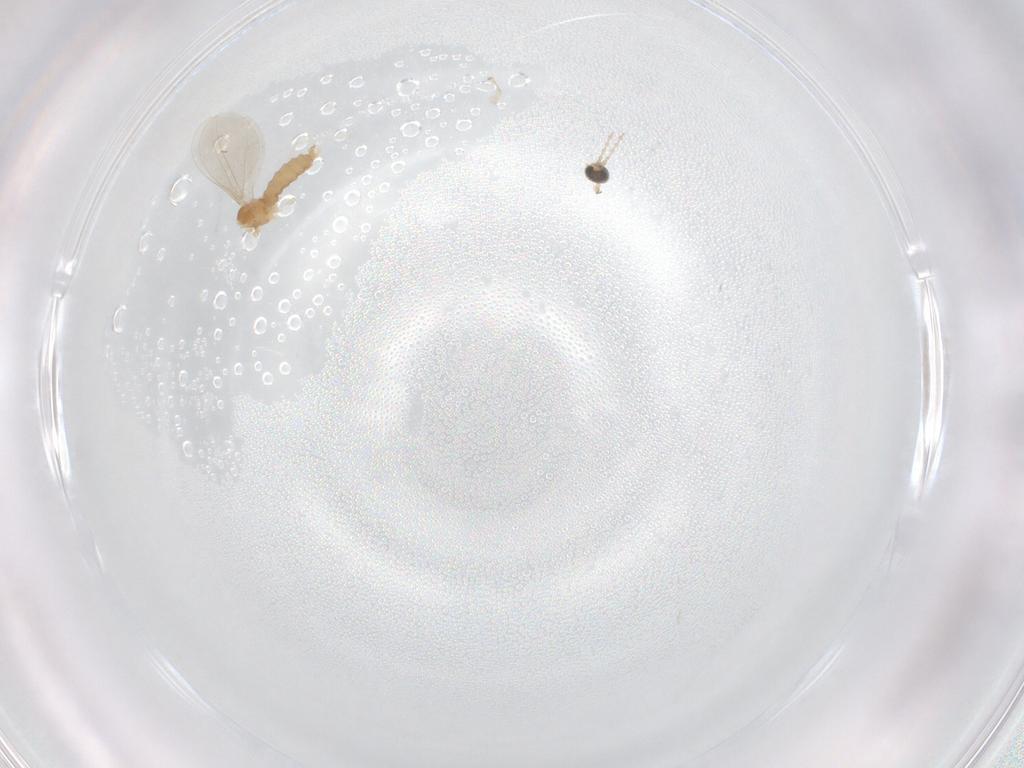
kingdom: Animalia
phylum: Arthropoda
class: Insecta
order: Diptera
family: Cecidomyiidae
